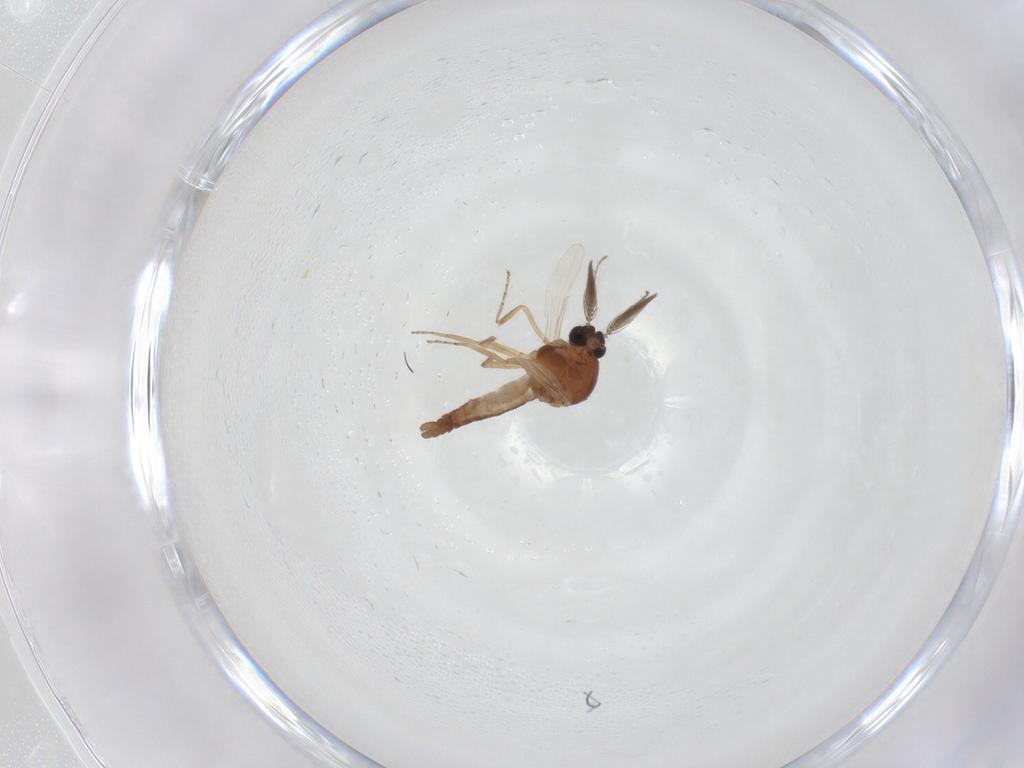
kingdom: Animalia
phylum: Arthropoda
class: Insecta
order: Diptera
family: Ceratopogonidae
